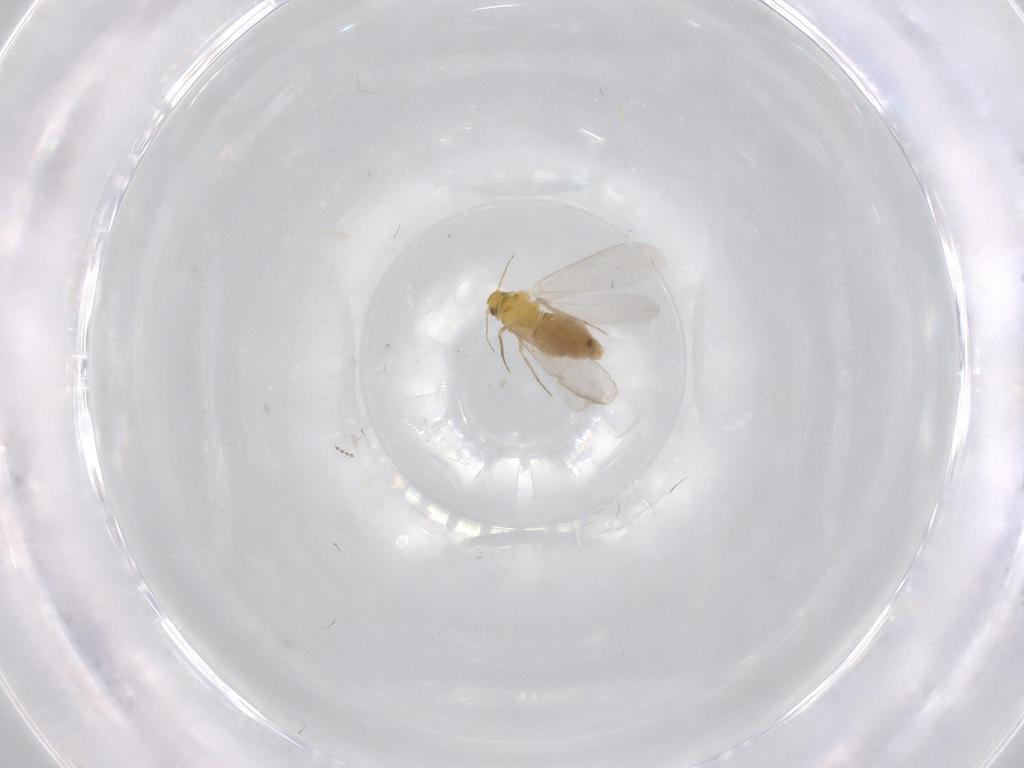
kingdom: Animalia
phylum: Arthropoda
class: Insecta
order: Hemiptera
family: Aleyrodidae
